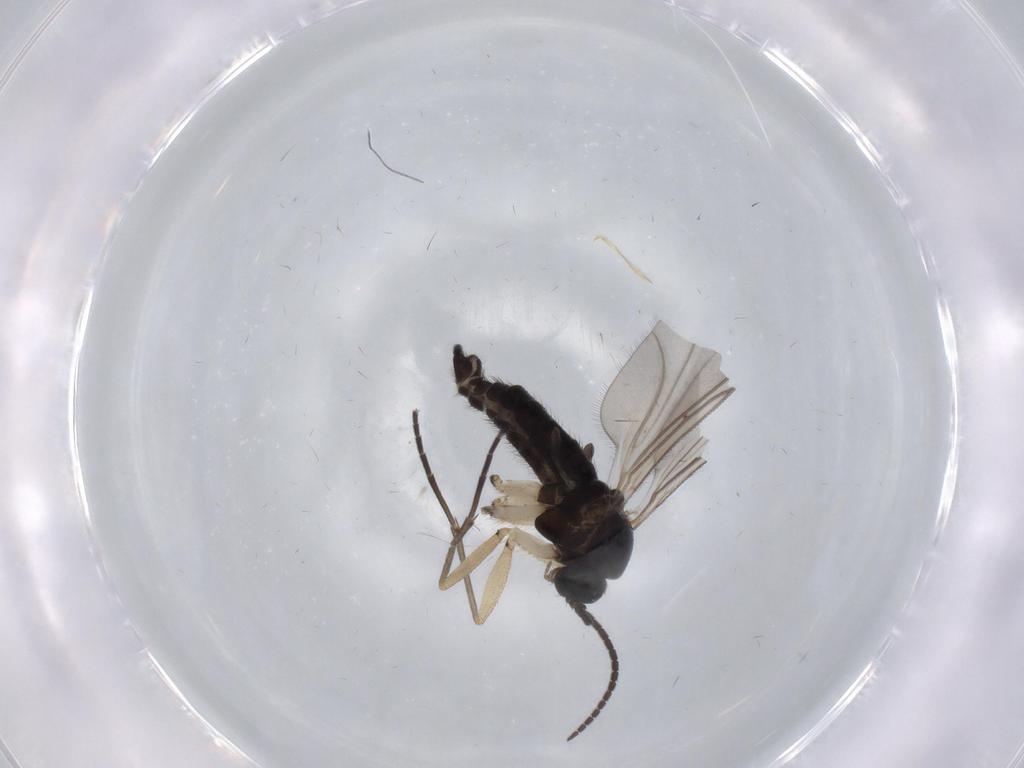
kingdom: Animalia
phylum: Arthropoda
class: Insecta
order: Diptera
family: Sciaridae
